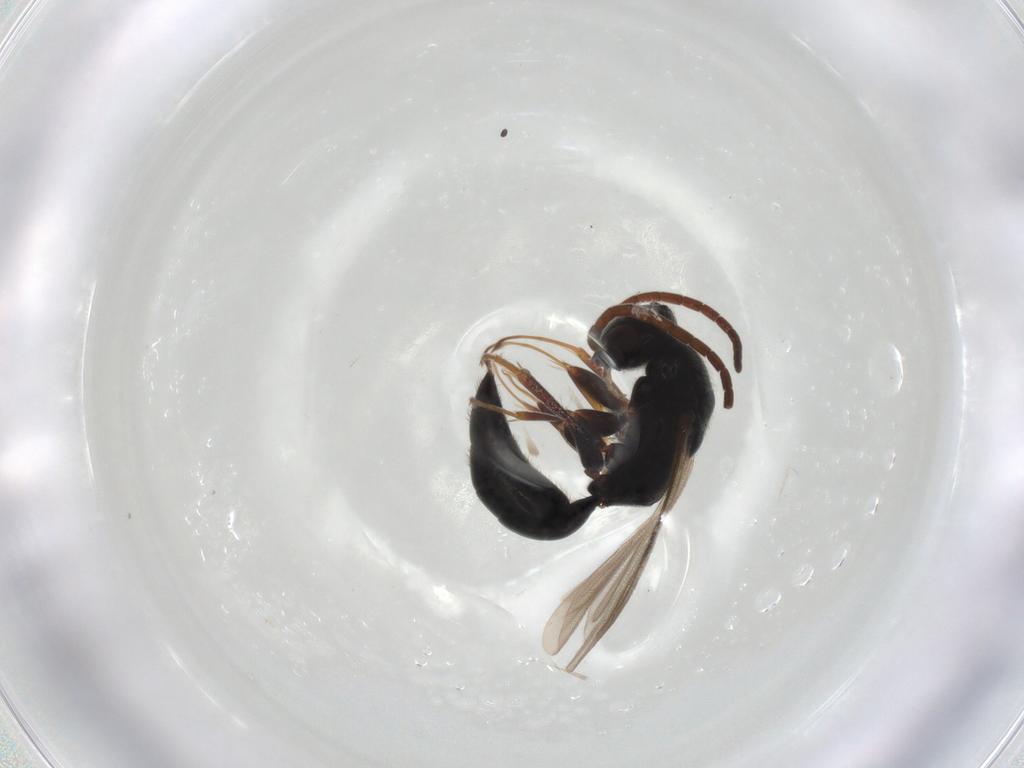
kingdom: Animalia
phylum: Arthropoda
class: Insecta
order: Hymenoptera
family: Bethylidae
